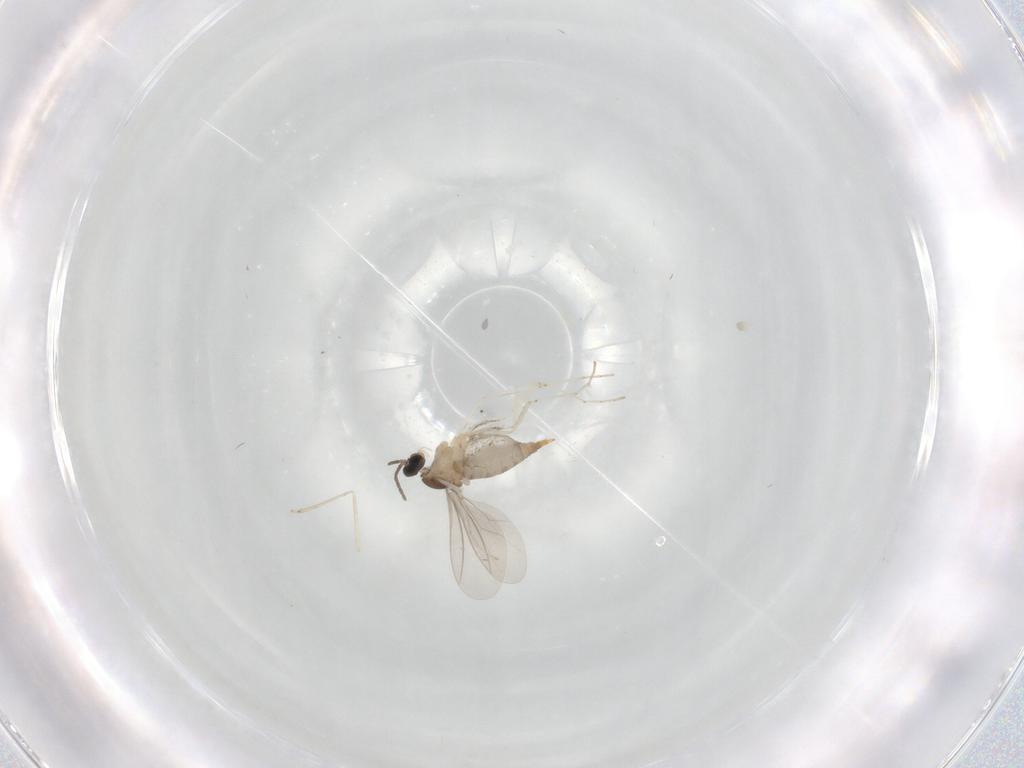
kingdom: Animalia
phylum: Arthropoda
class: Insecta
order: Diptera
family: Cecidomyiidae
